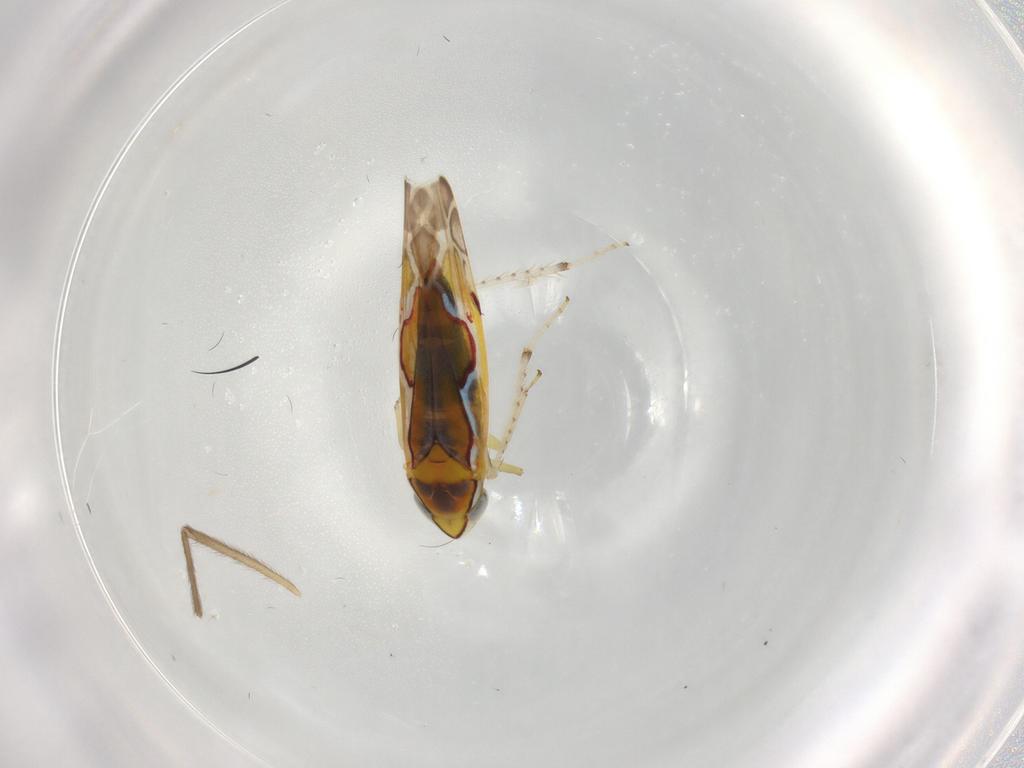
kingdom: Animalia
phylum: Arthropoda
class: Insecta
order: Hemiptera
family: Cicadellidae
